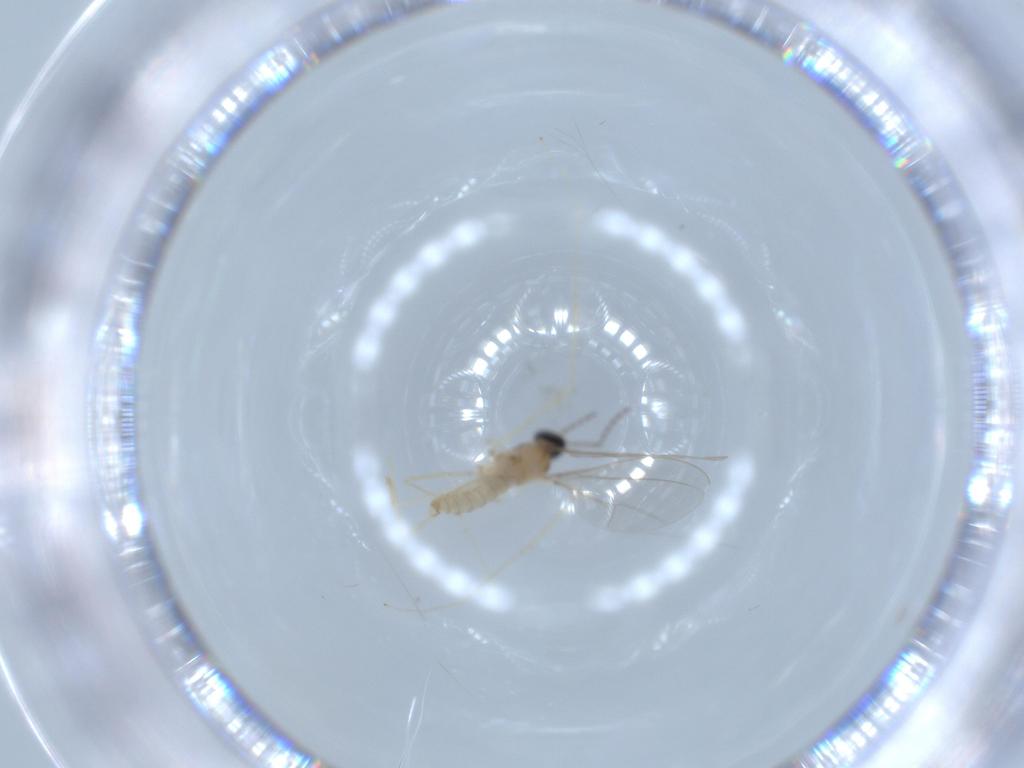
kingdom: Animalia
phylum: Arthropoda
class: Insecta
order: Diptera
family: Cecidomyiidae
